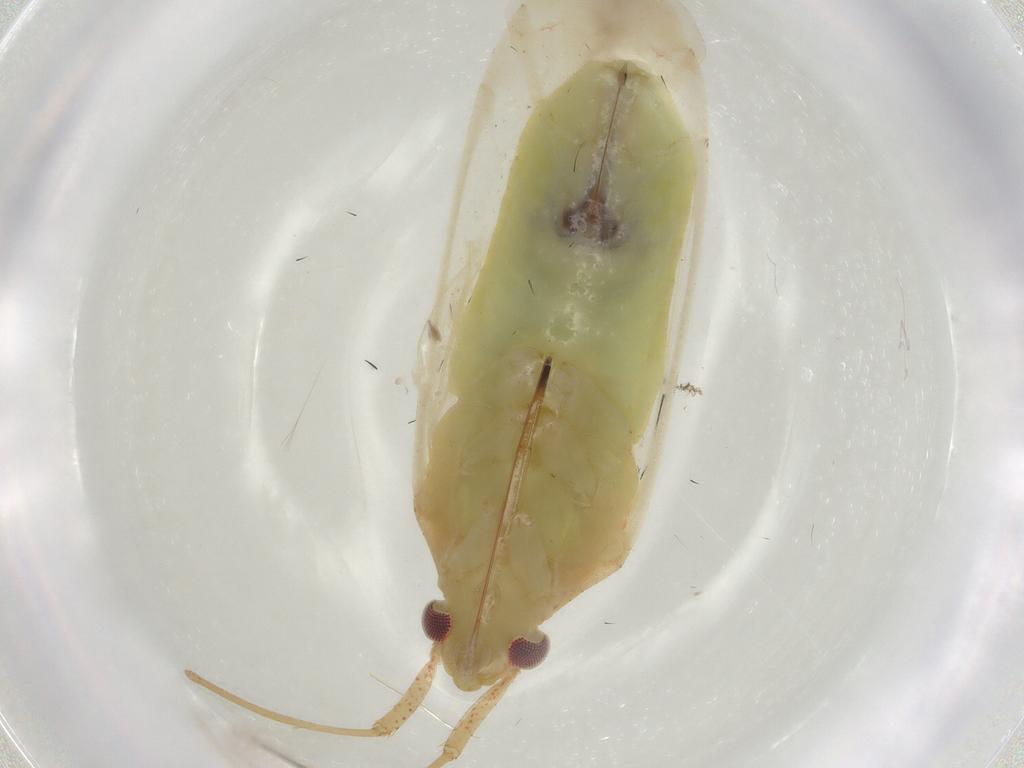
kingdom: Animalia
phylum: Arthropoda
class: Insecta
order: Hemiptera
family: Miridae
